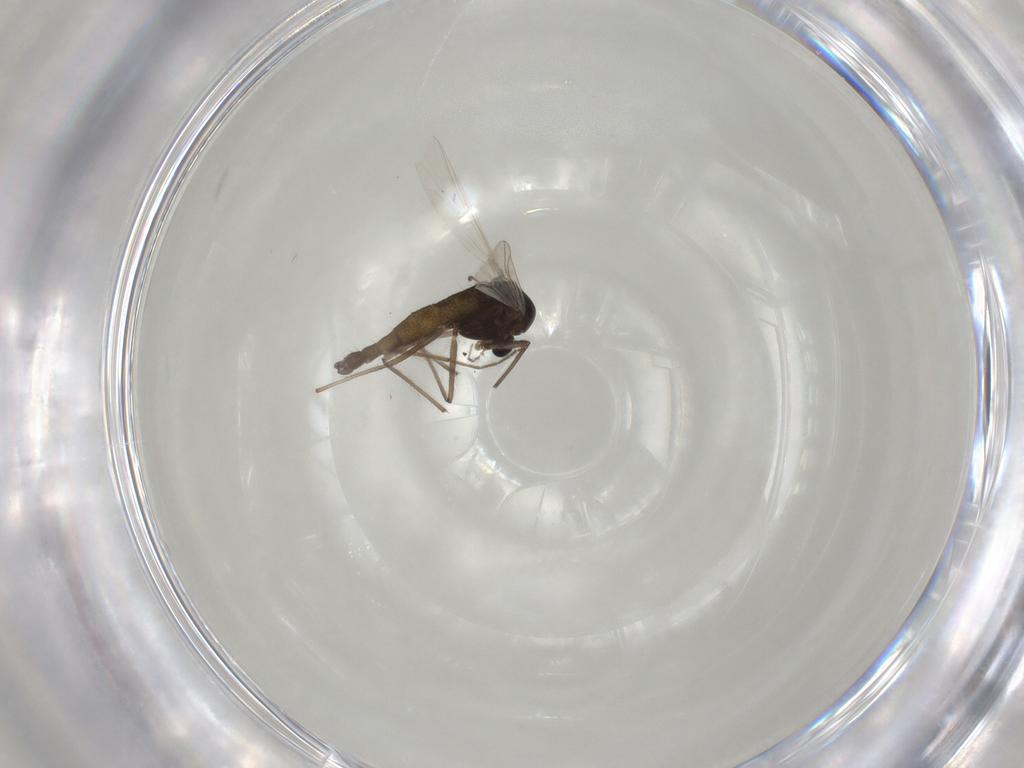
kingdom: Animalia
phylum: Arthropoda
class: Insecta
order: Diptera
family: Chironomidae
